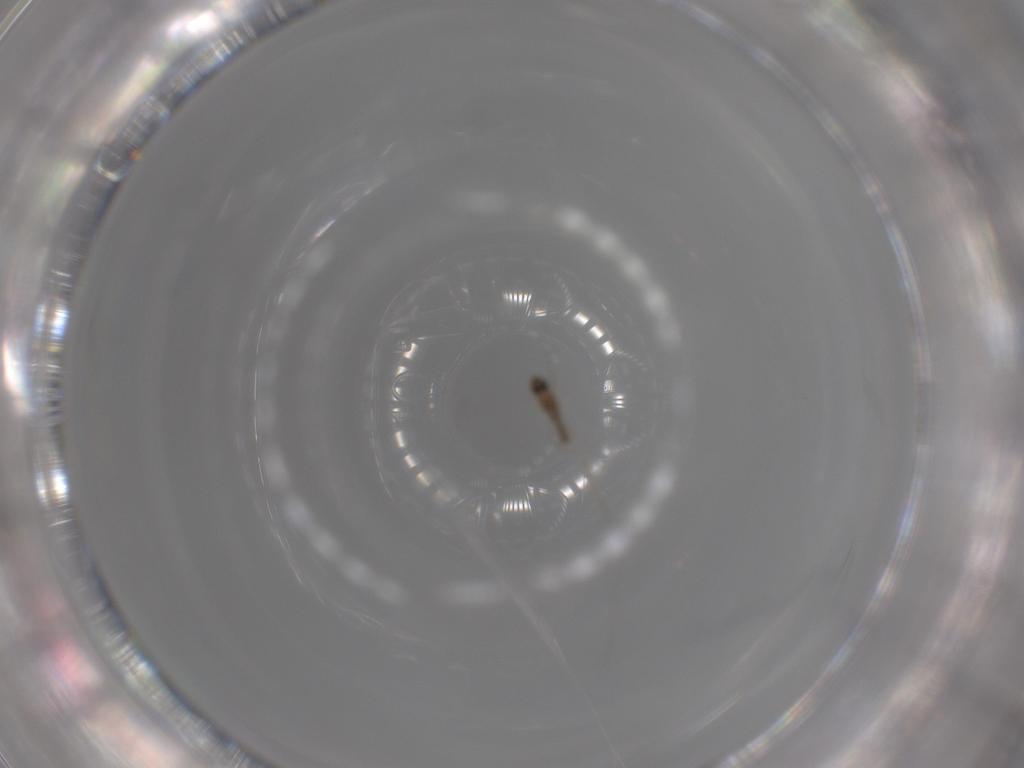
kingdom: Animalia
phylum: Arthropoda
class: Insecta
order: Diptera
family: Cecidomyiidae
